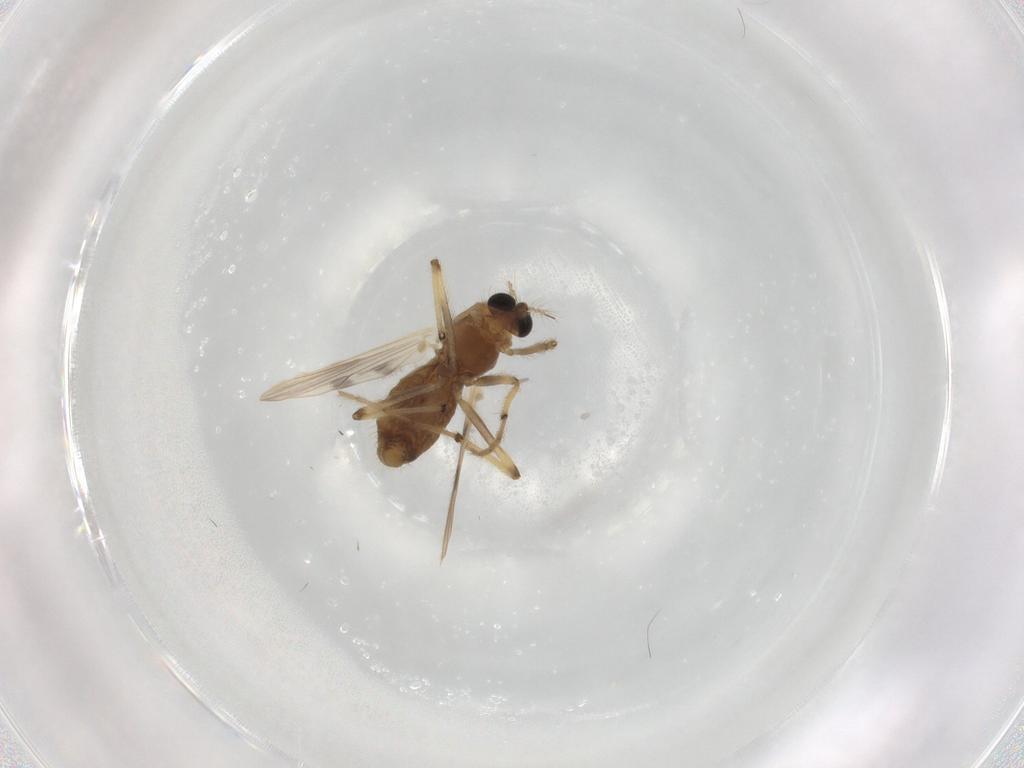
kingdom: Animalia
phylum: Arthropoda
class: Insecta
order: Diptera
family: Chironomidae
